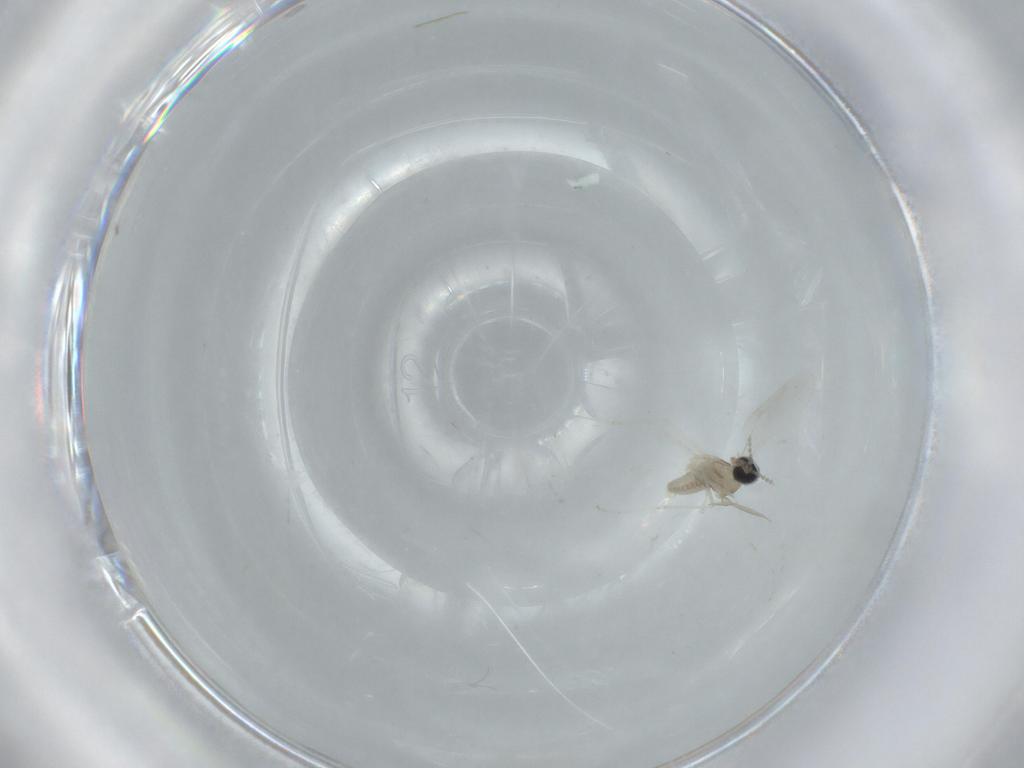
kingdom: Animalia
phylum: Arthropoda
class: Insecta
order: Diptera
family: Cecidomyiidae
